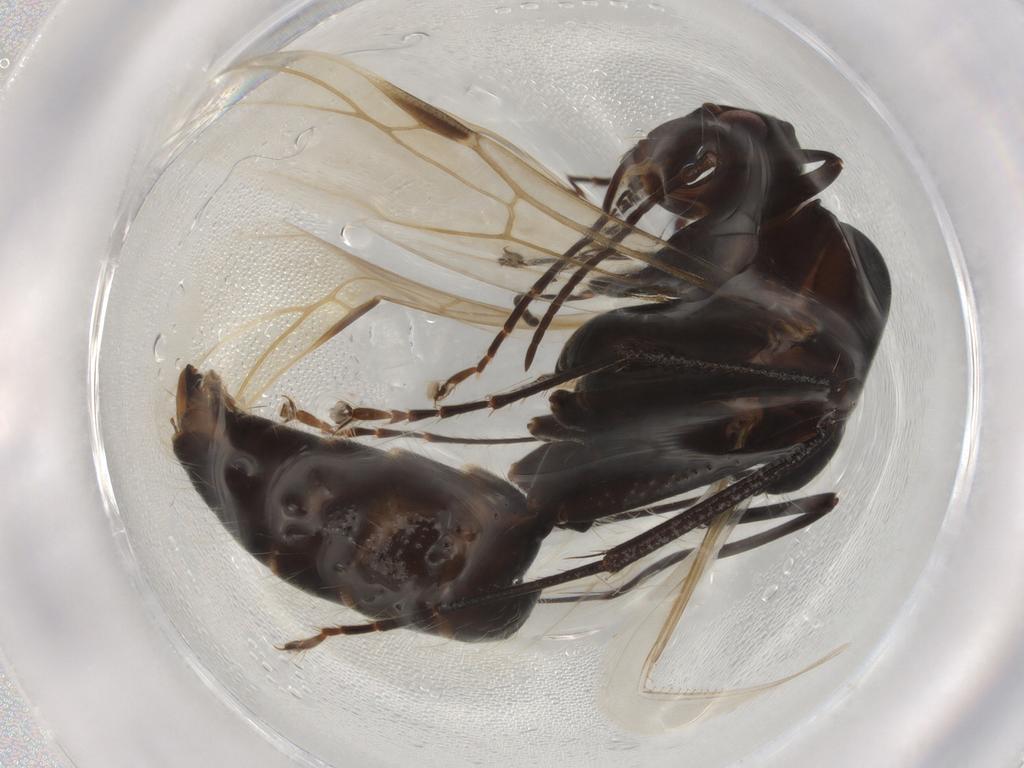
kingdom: Animalia
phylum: Arthropoda
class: Insecta
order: Hymenoptera
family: Formicidae
